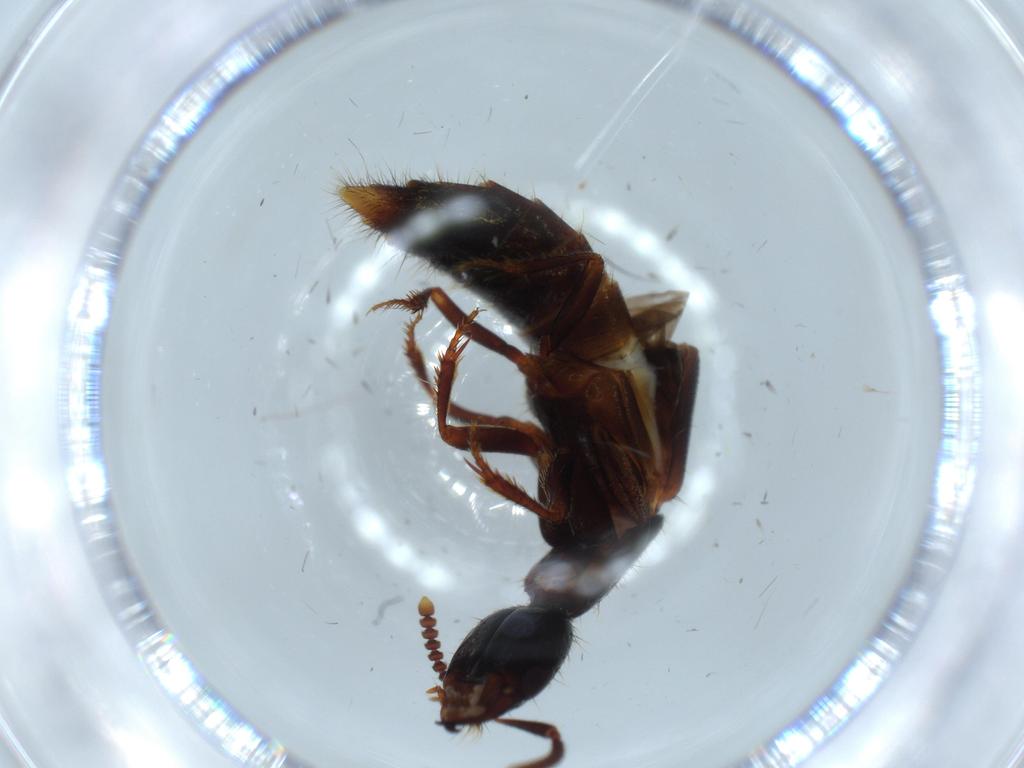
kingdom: Animalia
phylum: Arthropoda
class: Insecta
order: Coleoptera
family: Staphylinidae
